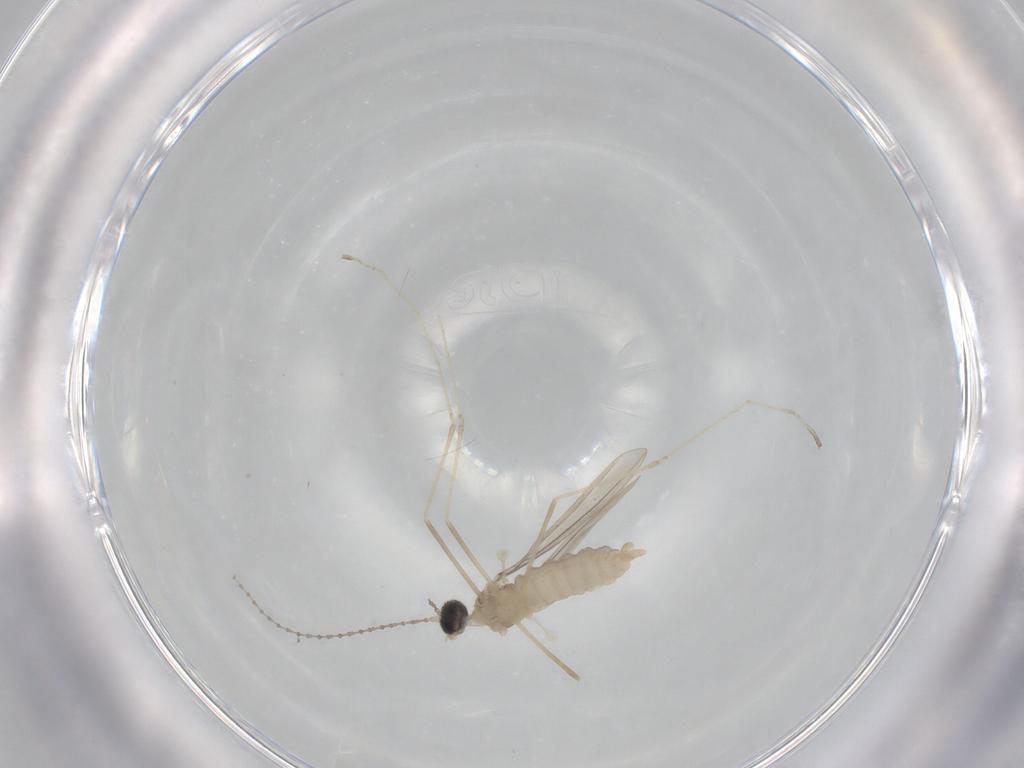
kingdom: Animalia
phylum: Arthropoda
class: Insecta
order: Diptera
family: Cecidomyiidae
